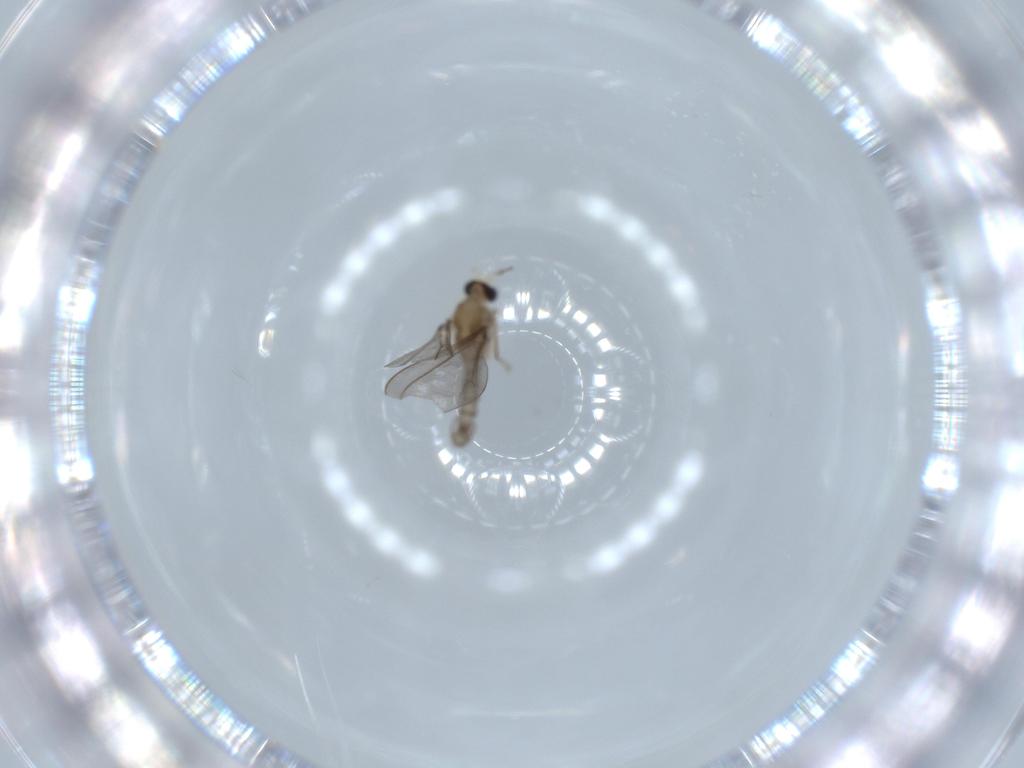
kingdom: Animalia
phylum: Arthropoda
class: Insecta
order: Diptera
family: Cecidomyiidae
